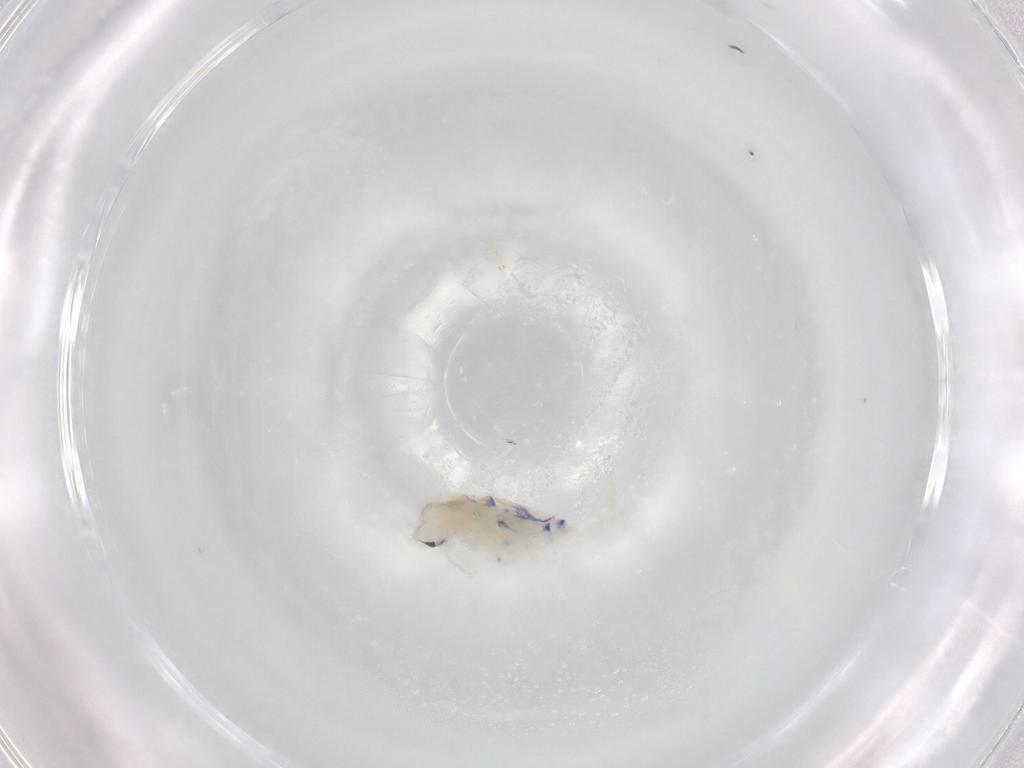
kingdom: Animalia
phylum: Arthropoda
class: Collembola
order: Entomobryomorpha
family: Entomobryidae
